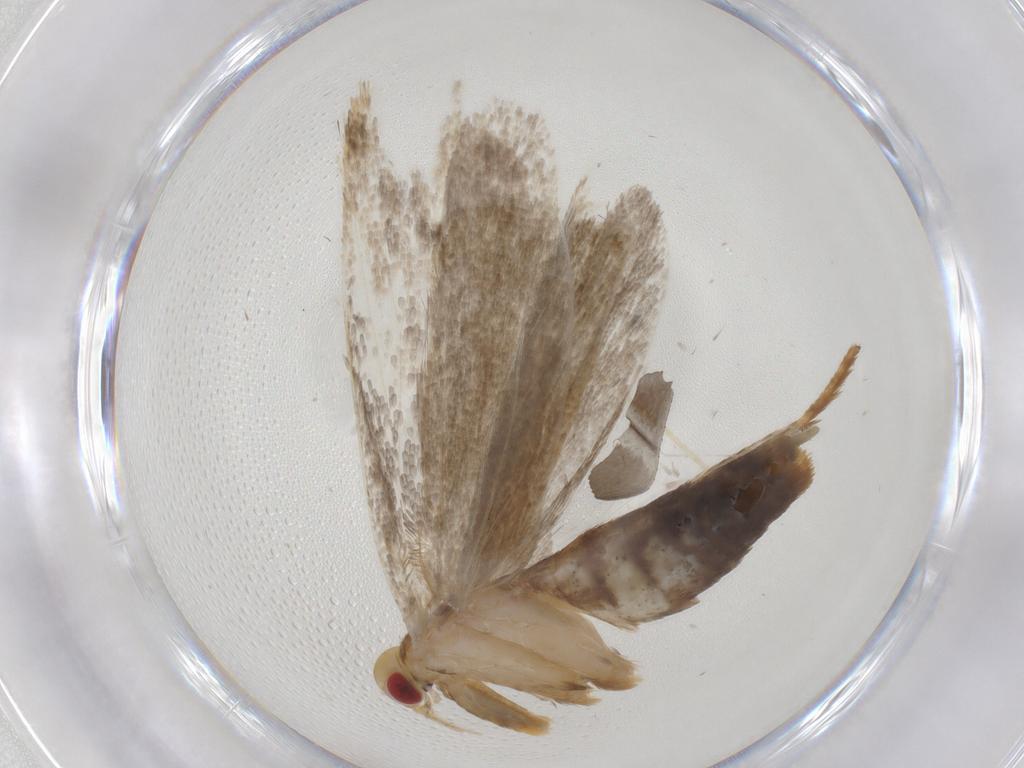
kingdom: Animalia
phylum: Arthropoda
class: Insecta
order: Lepidoptera
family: Oecophoridae
